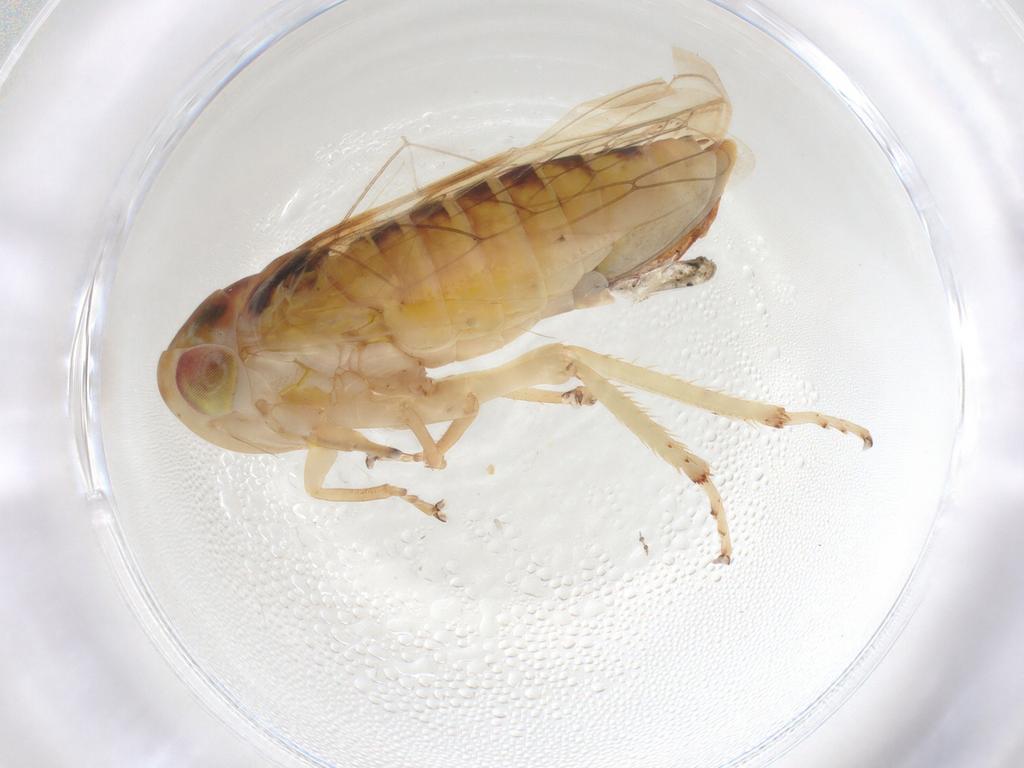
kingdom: Animalia
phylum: Arthropoda
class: Insecta
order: Hemiptera
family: Cicadellidae
